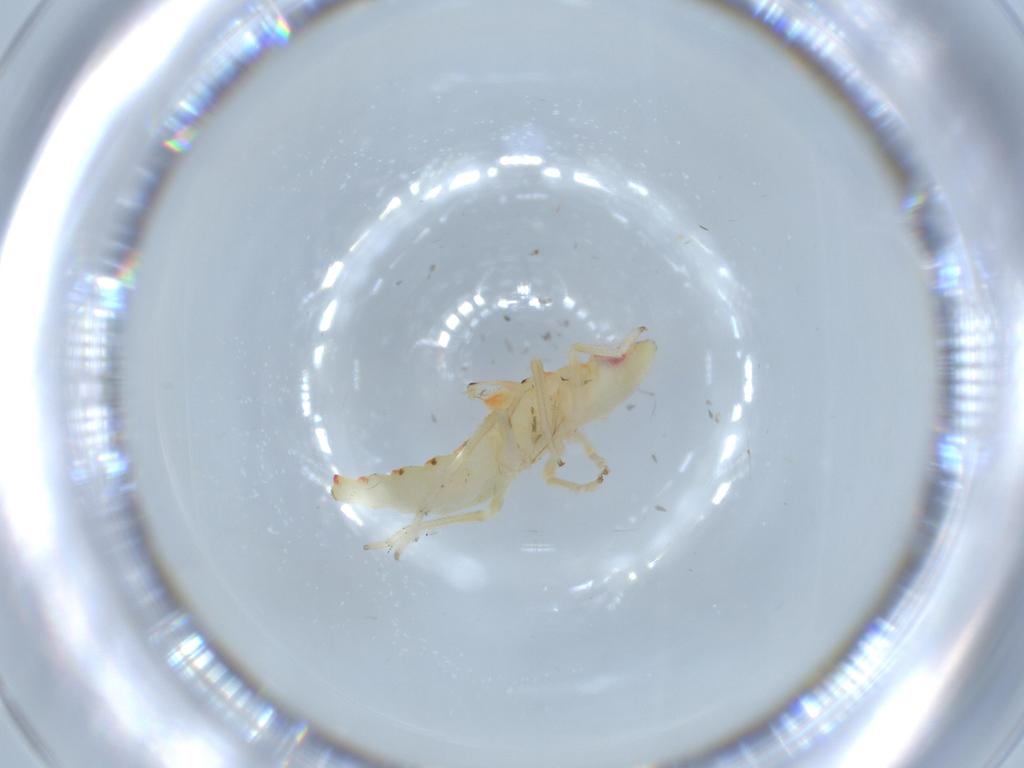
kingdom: Animalia
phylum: Arthropoda
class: Insecta
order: Hemiptera
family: Tropiduchidae
